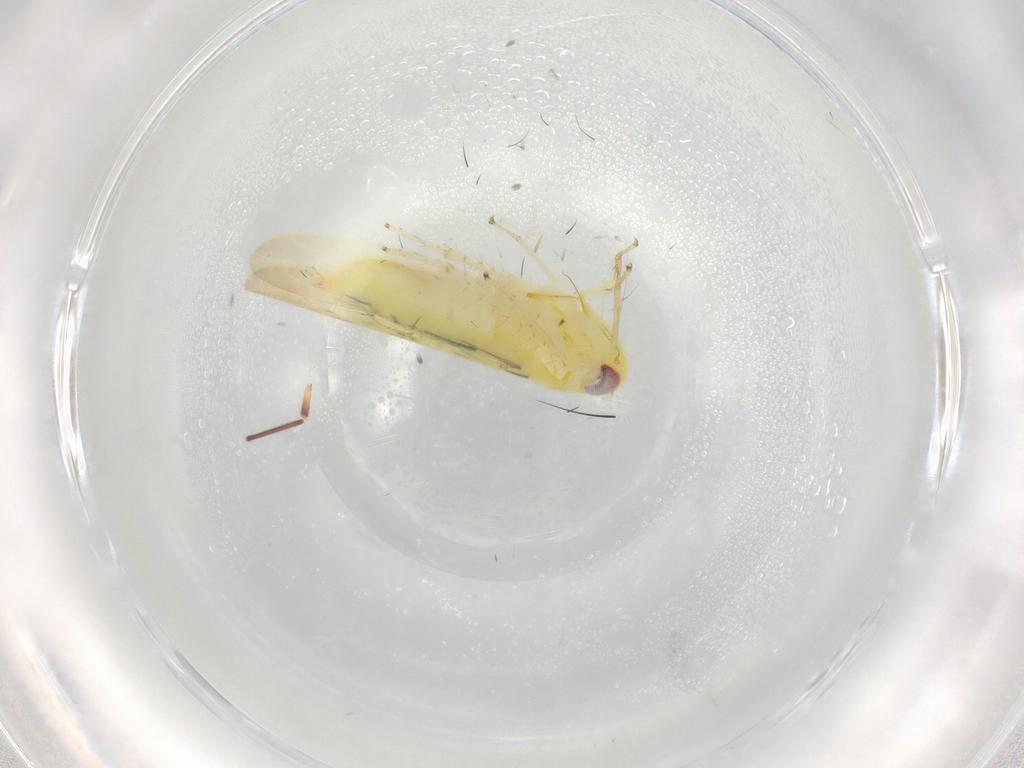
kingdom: Animalia
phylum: Arthropoda
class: Insecta
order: Hemiptera
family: Cicadellidae
